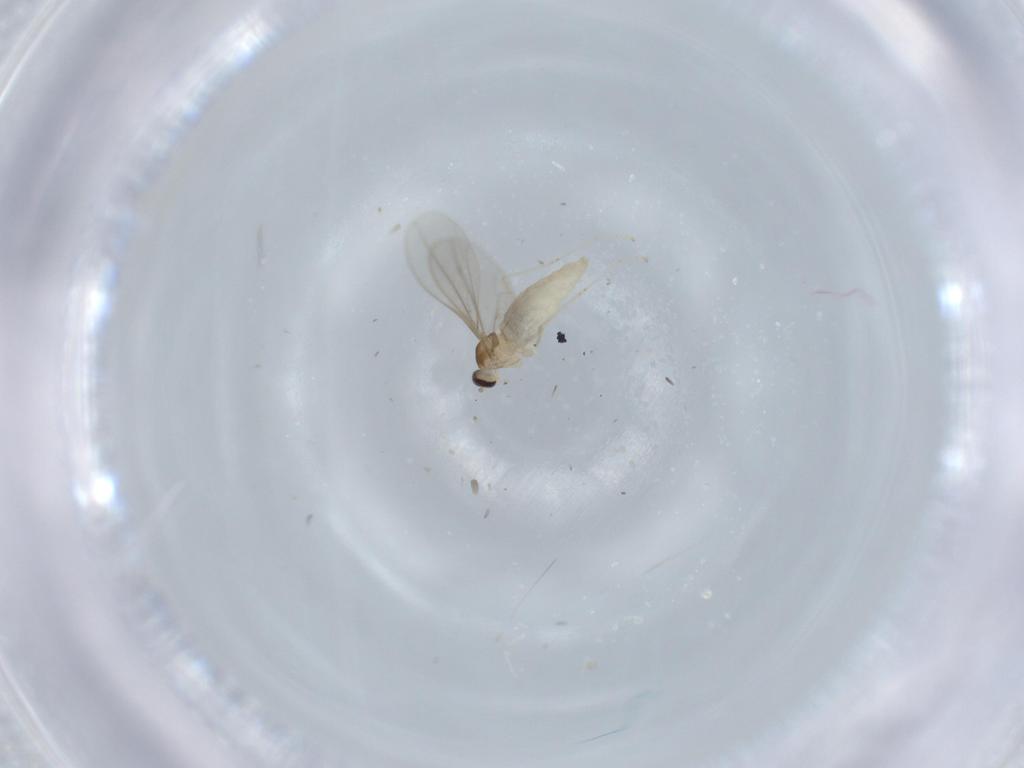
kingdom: Animalia
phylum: Arthropoda
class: Insecta
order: Diptera
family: Cecidomyiidae
